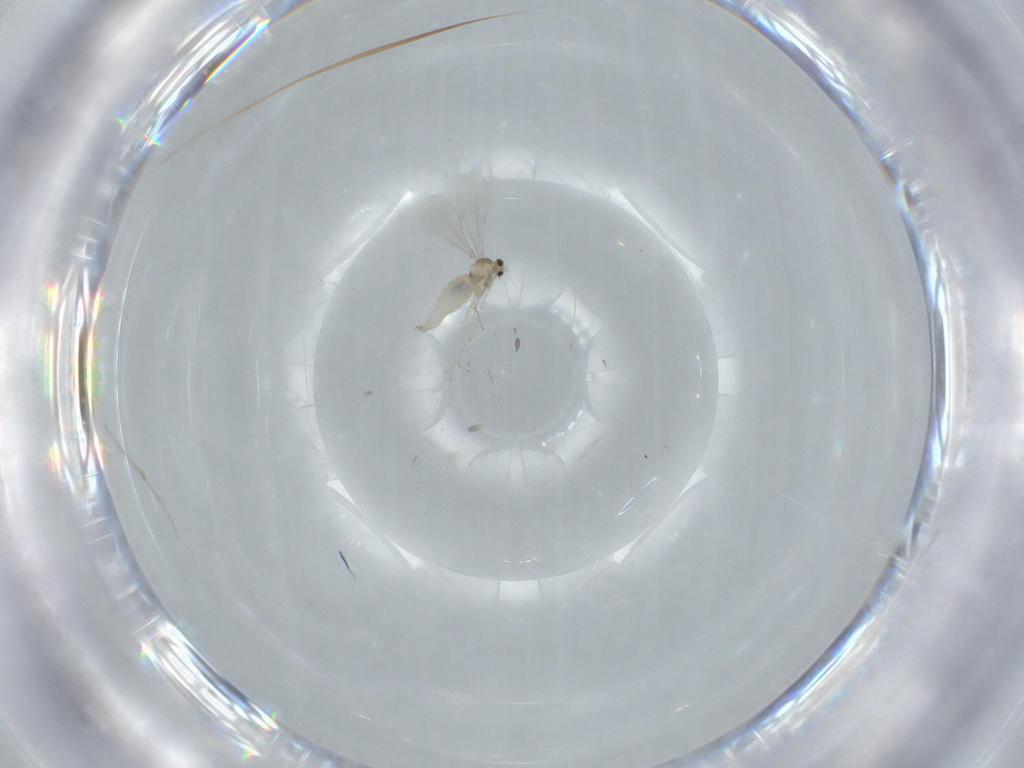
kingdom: Animalia
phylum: Arthropoda
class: Insecta
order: Diptera
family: Cecidomyiidae
